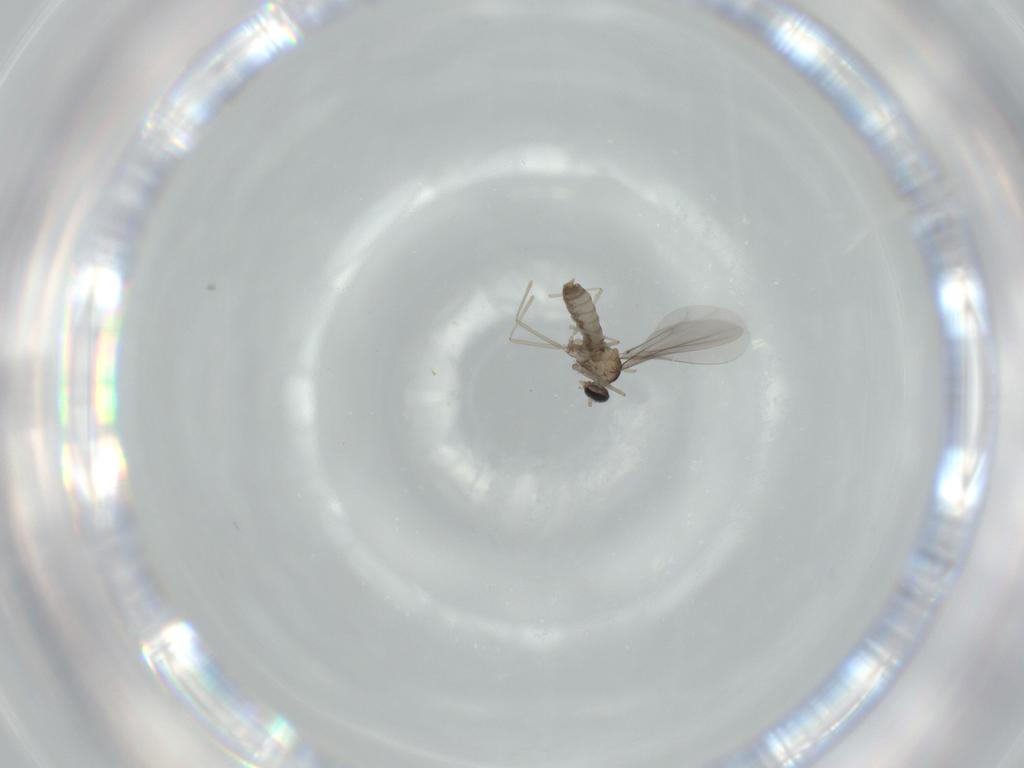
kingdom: Animalia
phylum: Arthropoda
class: Insecta
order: Diptera
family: Cecidomyiidae
